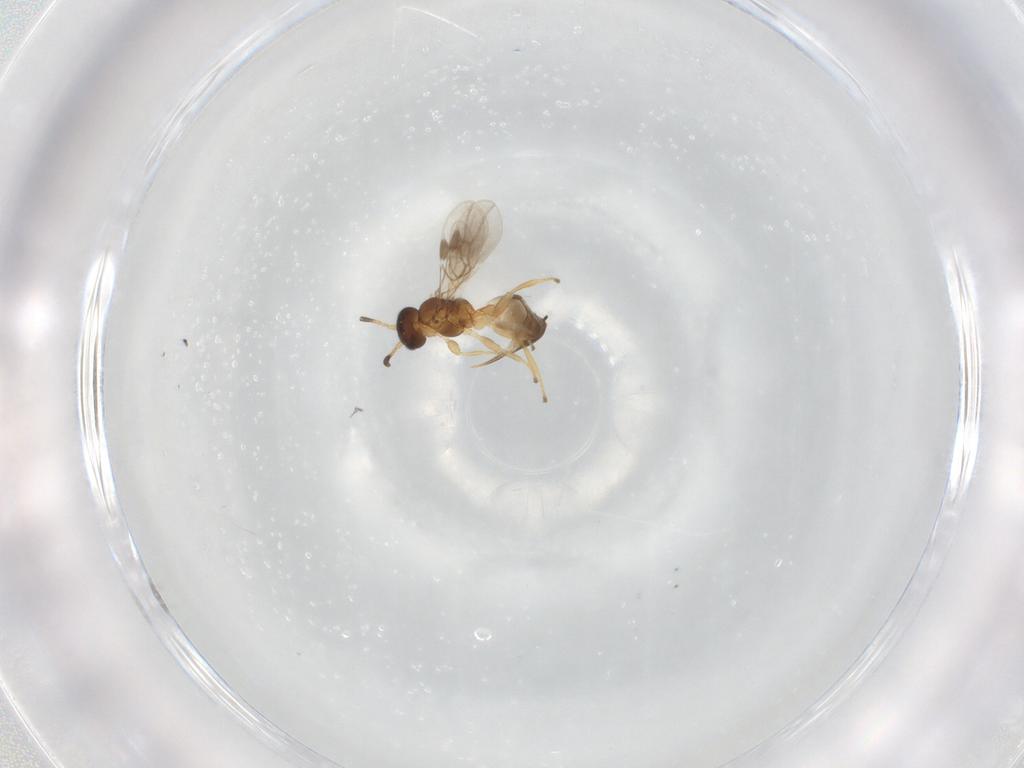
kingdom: Animalia
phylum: Arthropoda
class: Insecta
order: Hymenoptera
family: Braconidae
